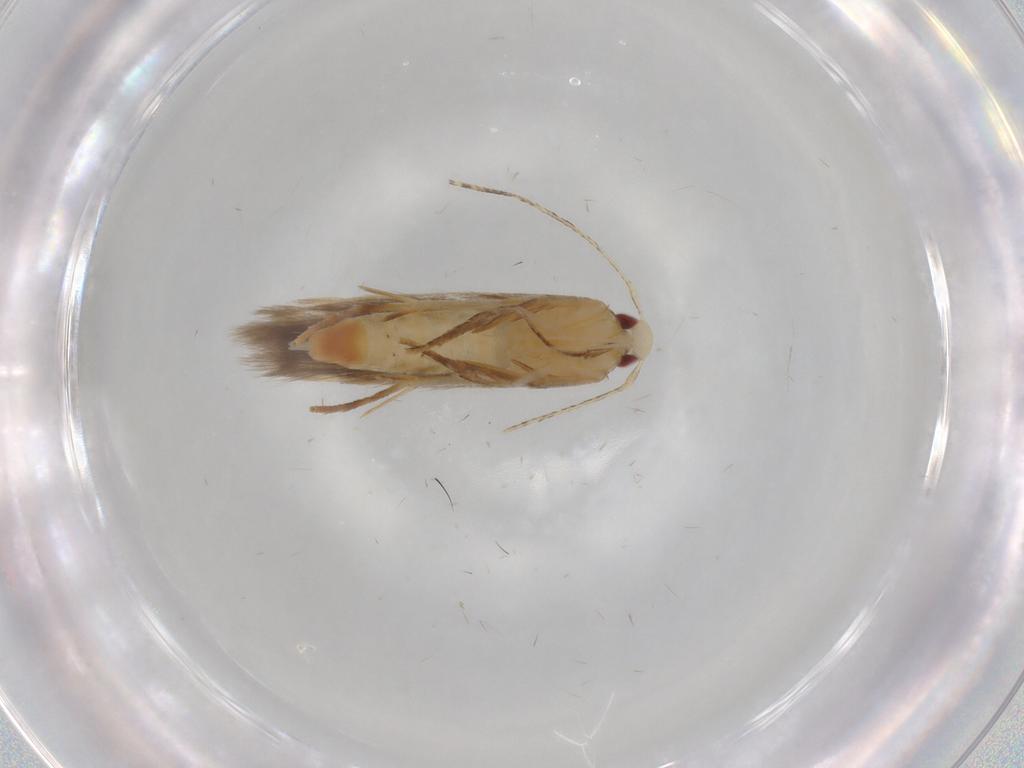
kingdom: Animalia
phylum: Arthropoda
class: Insecta
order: Lepidoptera
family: Gelechiidae
